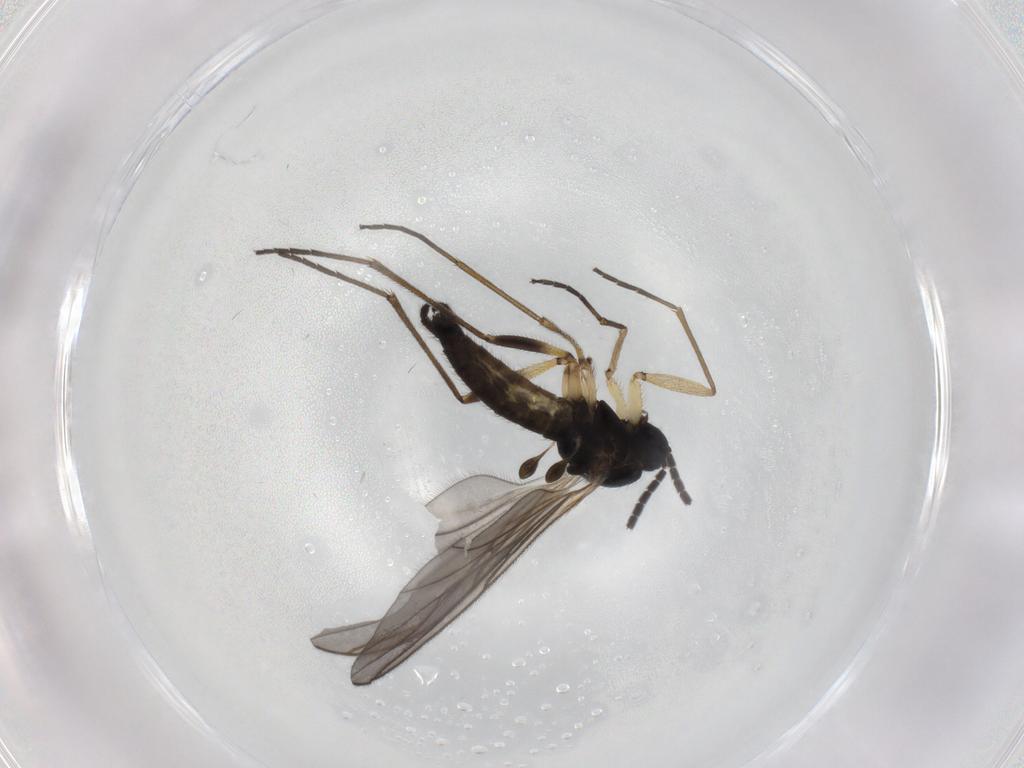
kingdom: Animalia
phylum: Arthropoda
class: Insecta
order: Diptera
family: Sciaridae
